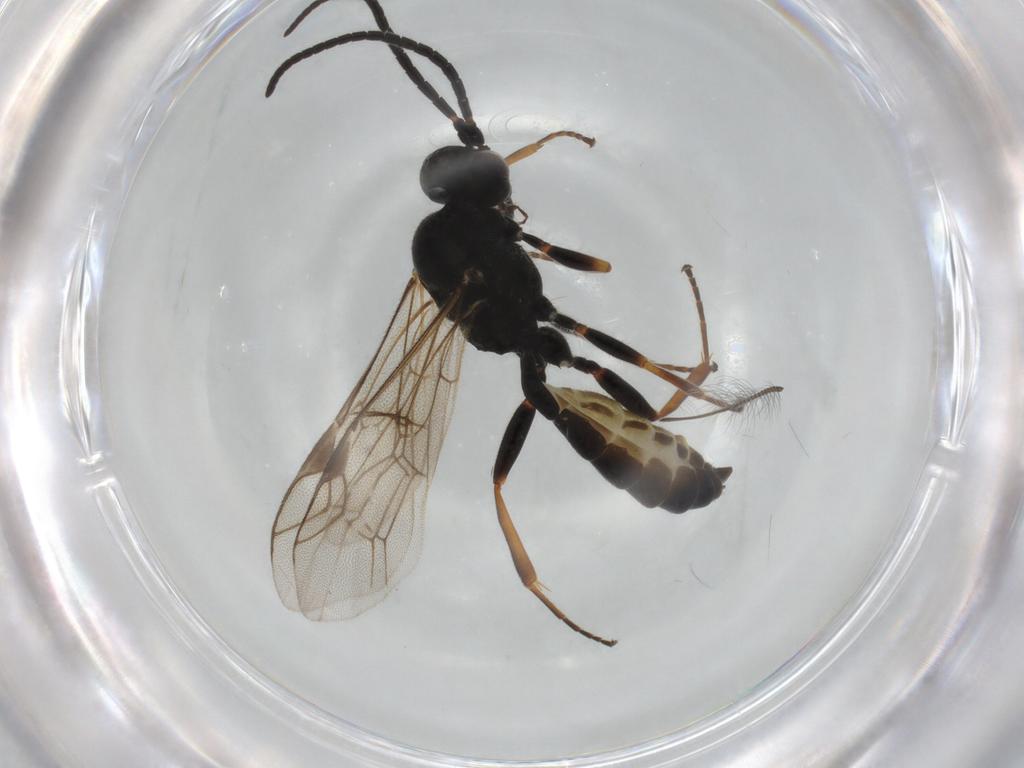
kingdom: Animalia
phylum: Arthropoda
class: Insecta
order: Hymenoptera
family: Ichneumonidae
